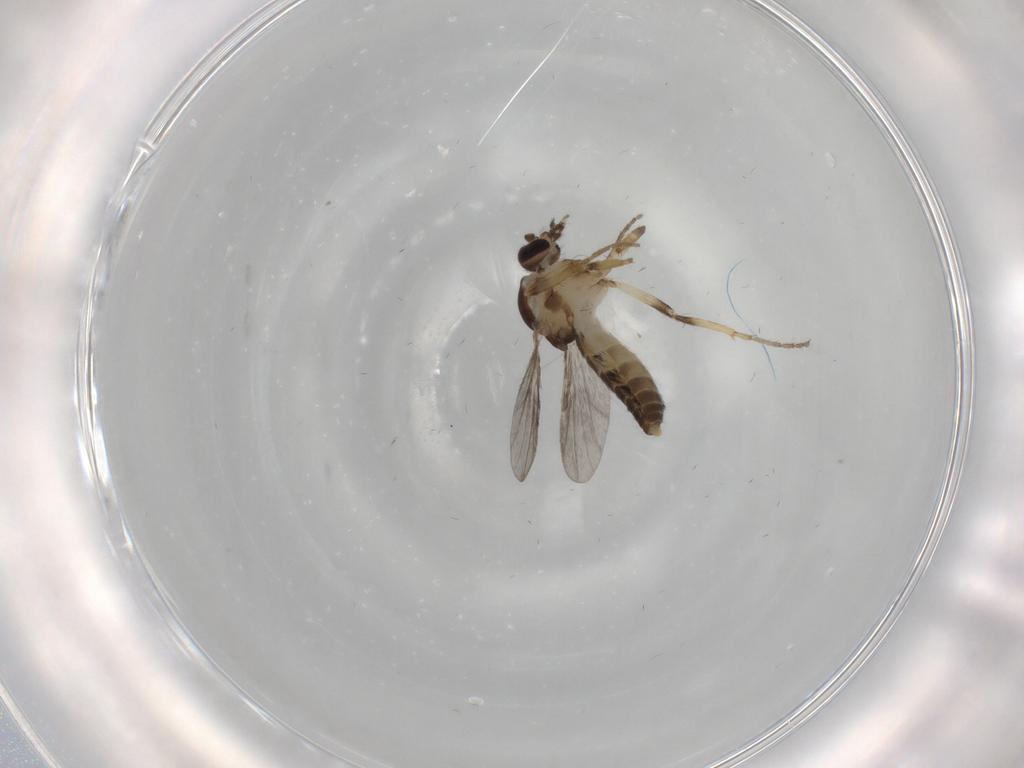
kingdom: Animalia
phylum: Arthropoda
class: Insecta
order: Diptera
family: Ceratopogonidae
